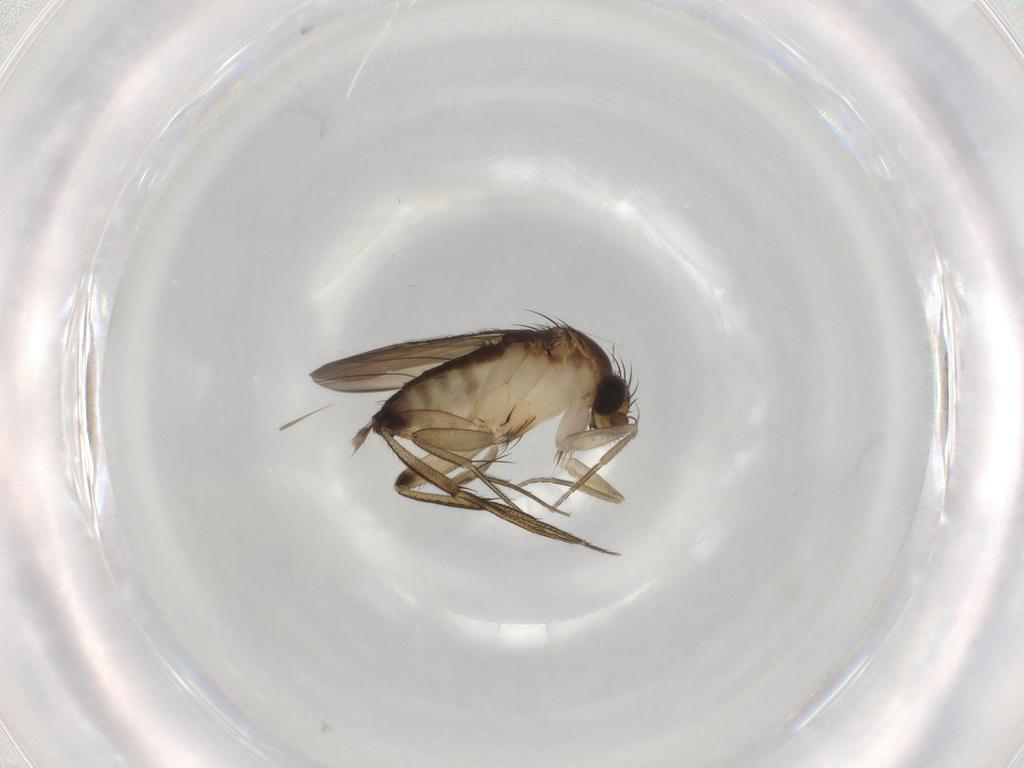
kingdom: Animalia
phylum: Arthropoda
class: Insecta
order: Diptera
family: Phoridae
